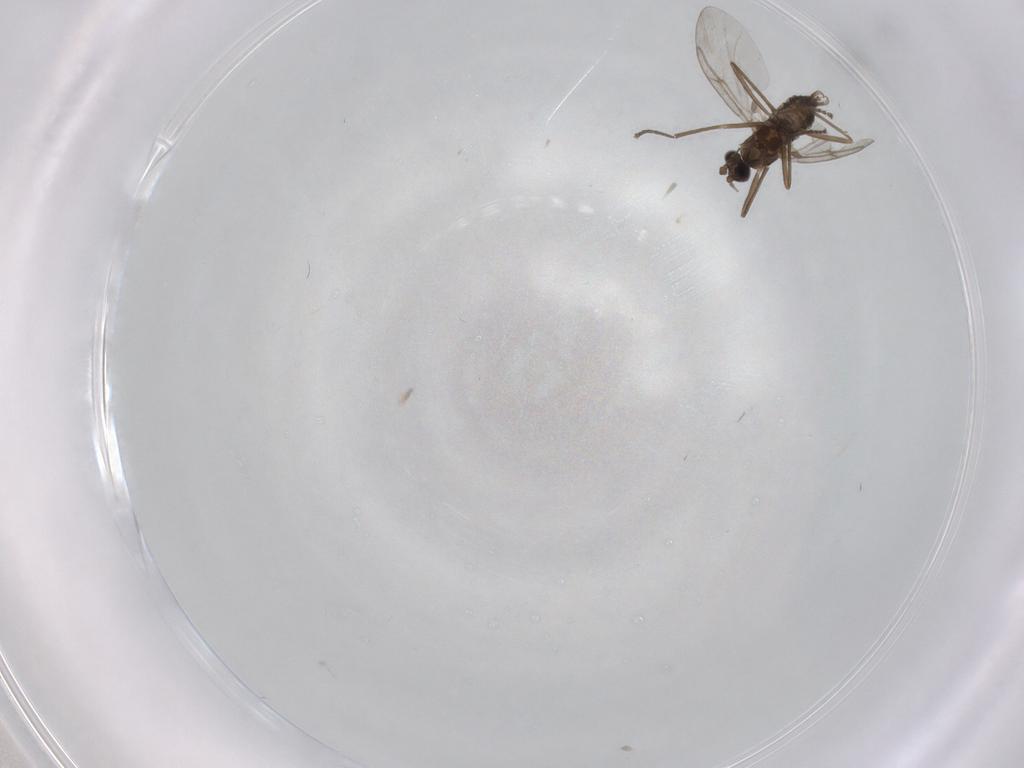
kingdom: Animalia
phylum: Arthropoda
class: Insecta
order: Diptera
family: Cecidomyiidae
